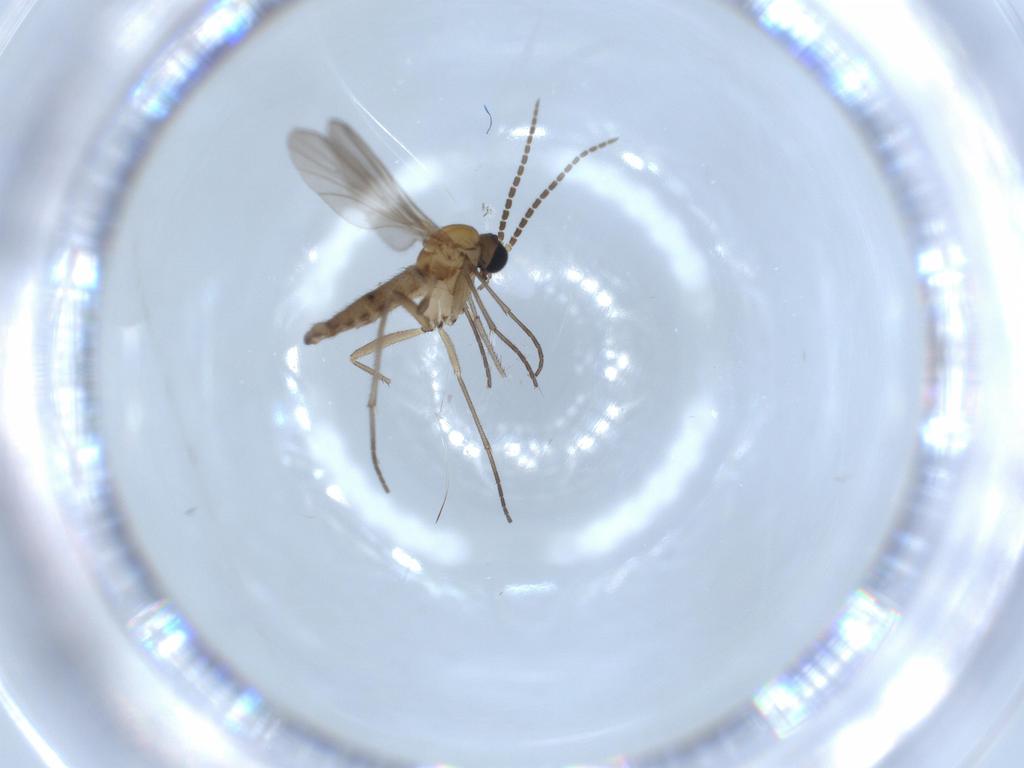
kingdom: Animalia
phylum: Arthropoda
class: Insecta
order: Diptera
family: Sciaridae
